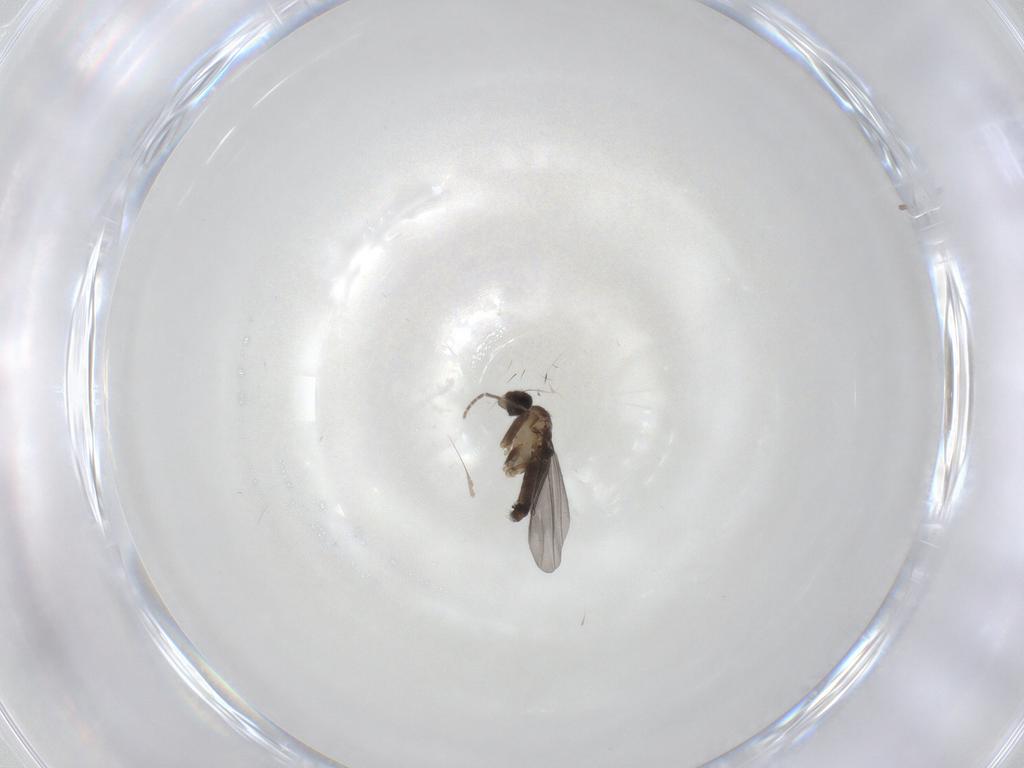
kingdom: Animalia
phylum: Arthropoda
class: Insecta
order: Diptera
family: Phoridae
